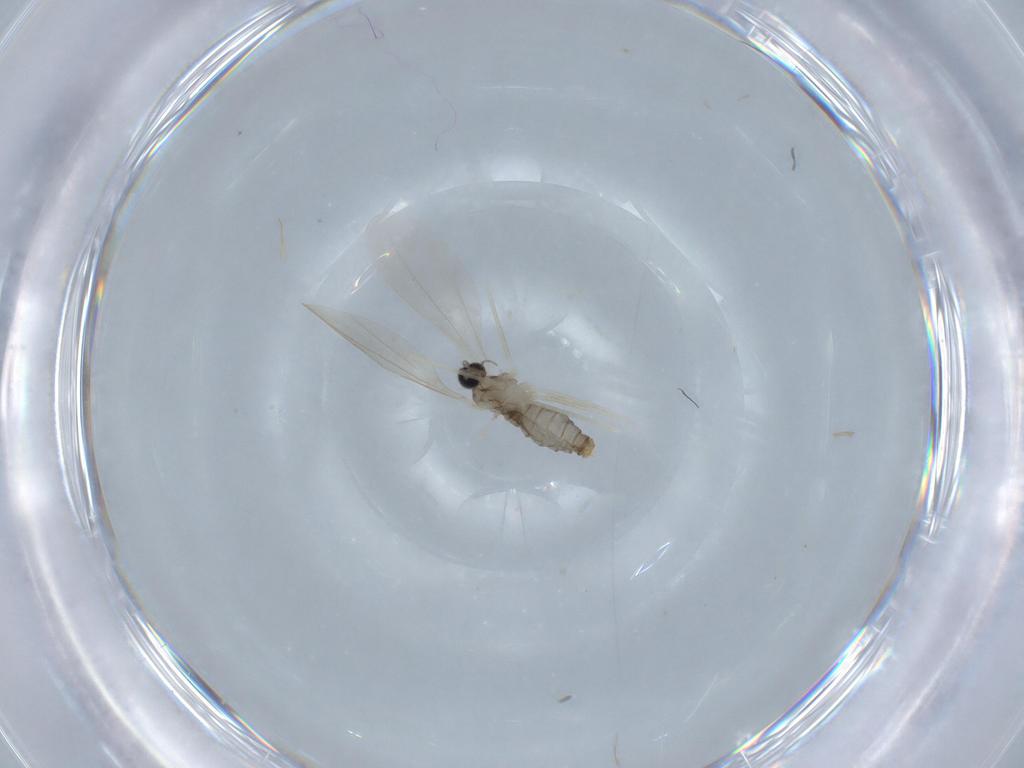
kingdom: Animalia
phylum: Arthropoda
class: Insecta
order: Diptera
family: Cecidomyiidae
